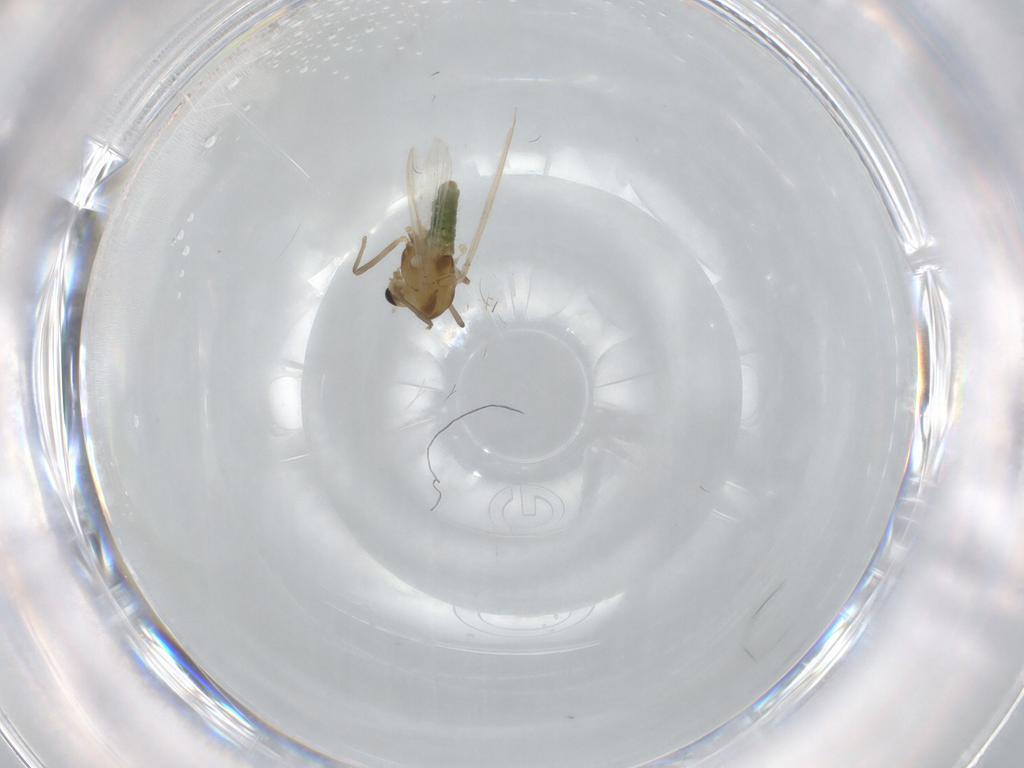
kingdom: Animalia
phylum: Arthropoda
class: Insecta
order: Diptera
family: Chironomidae
